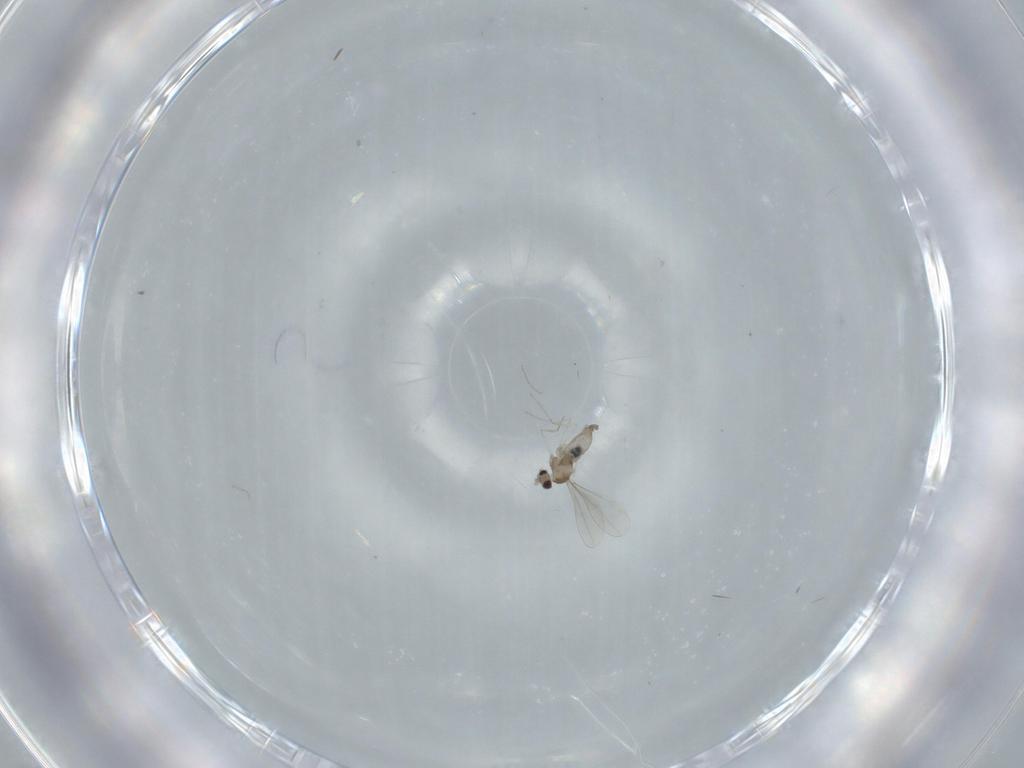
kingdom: Animalia
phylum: Arthropoda
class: Insecta
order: Diptera
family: Cecidomyiidae
